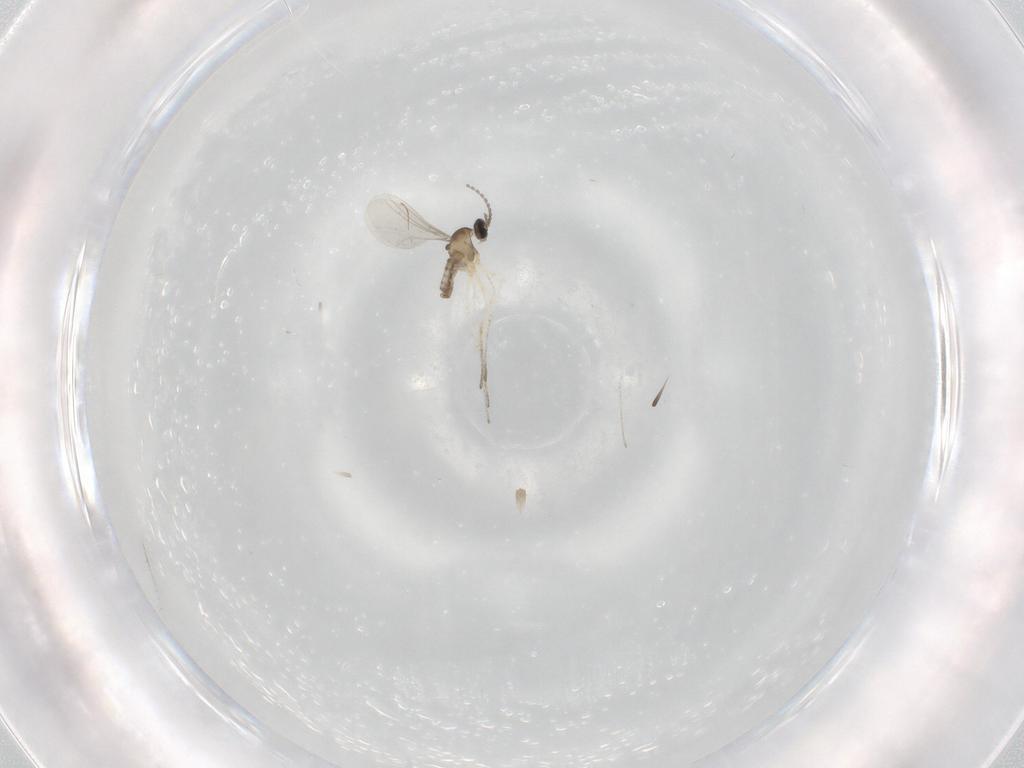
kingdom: Animalia
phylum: Arthropoda
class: Insecta
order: Diptera
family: Cecidomyiidae
